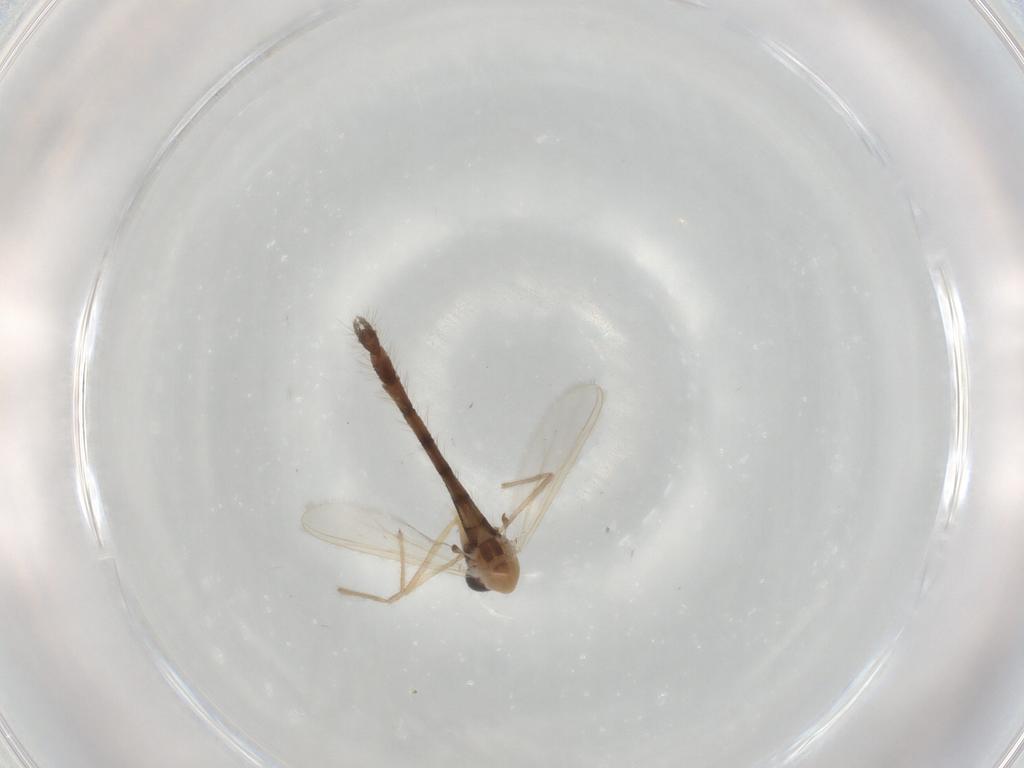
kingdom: Animalia
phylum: Arthropoda
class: Insecta
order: Diptera
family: Chironomidae
